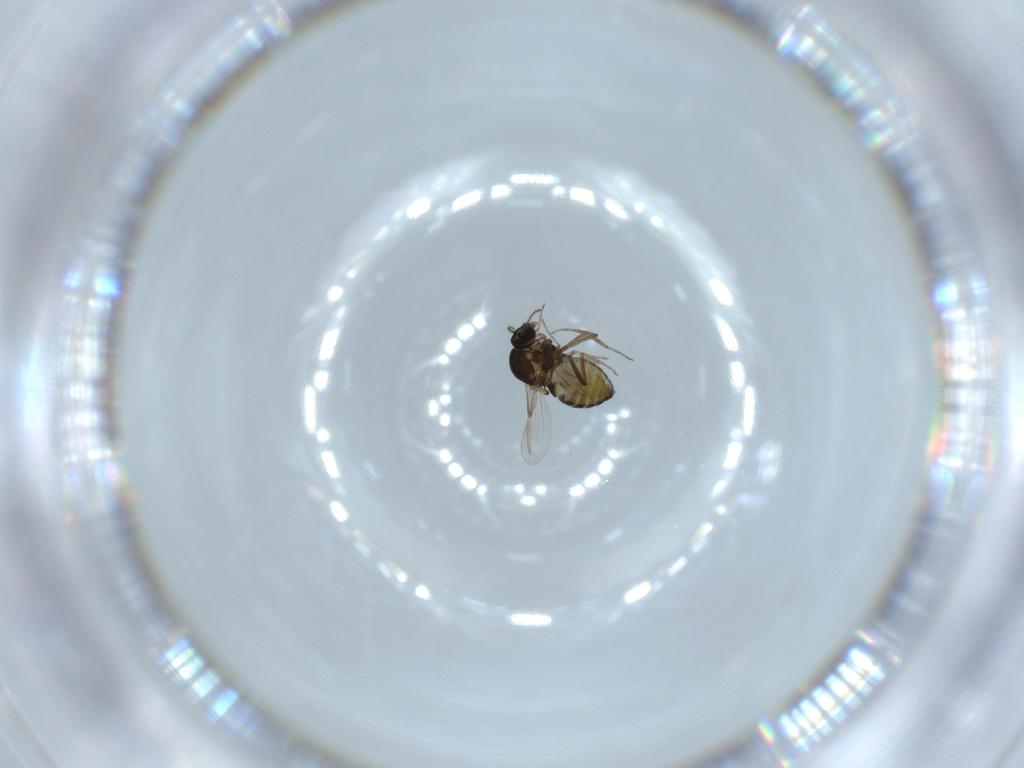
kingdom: Animalia
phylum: Arthropoda
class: Insecta
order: Diptera
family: Ceratopogonidae
